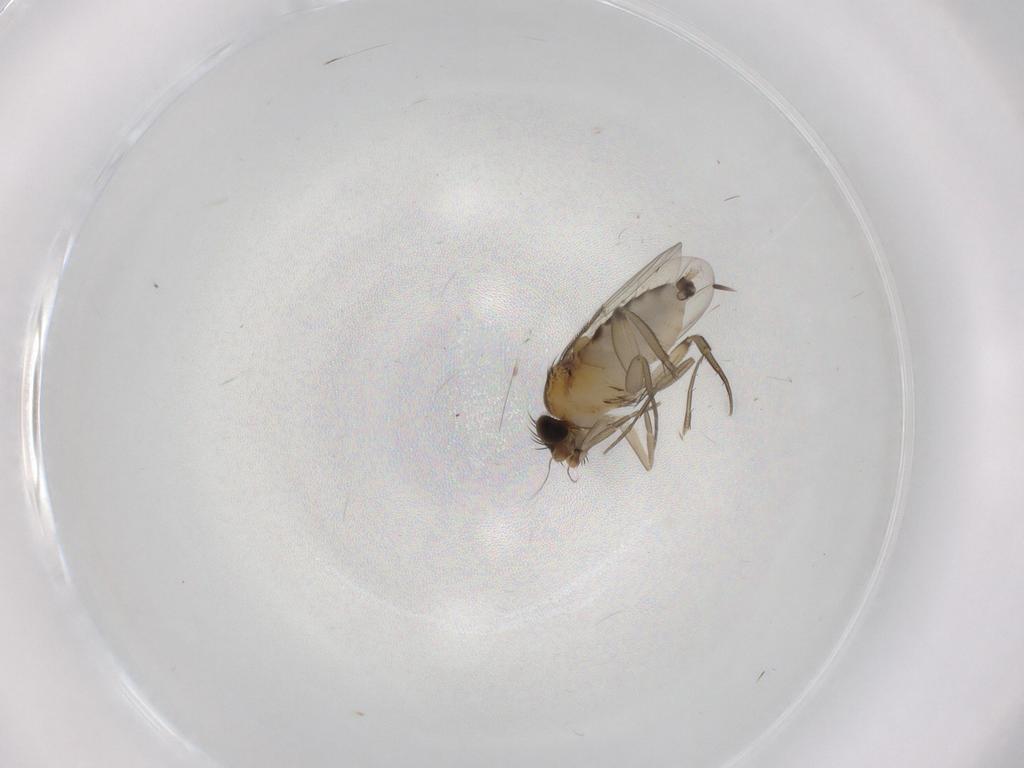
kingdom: Animalia
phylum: Arthropoda
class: Insecta
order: Diptera
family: Phoridae
